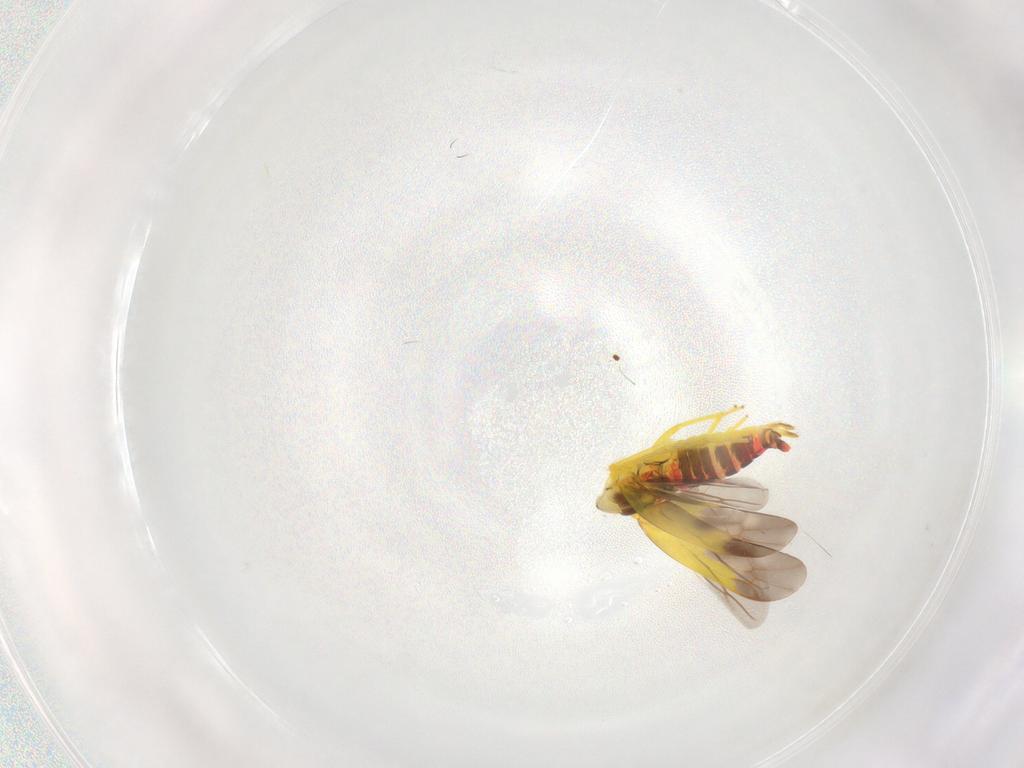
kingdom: Animalia
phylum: Arthropoda
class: Insecta
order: Hemiptera
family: Cicadellidae
